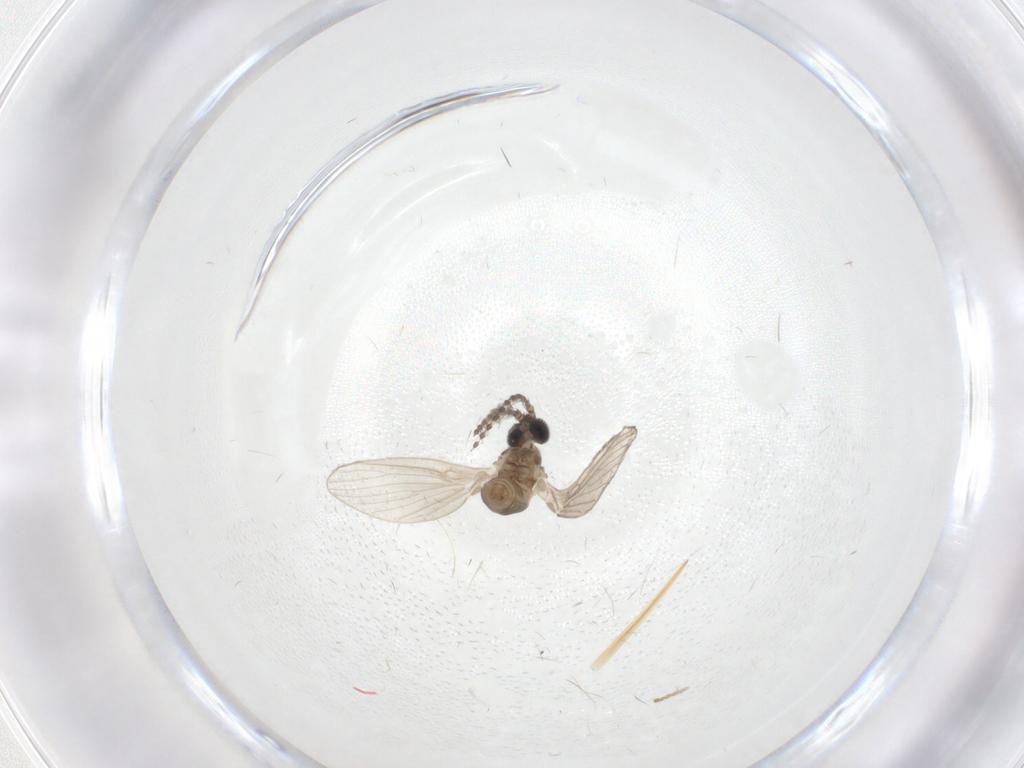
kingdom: Animalia
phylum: Arthropoda
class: Insecta
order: Diptera
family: Psychodidae
